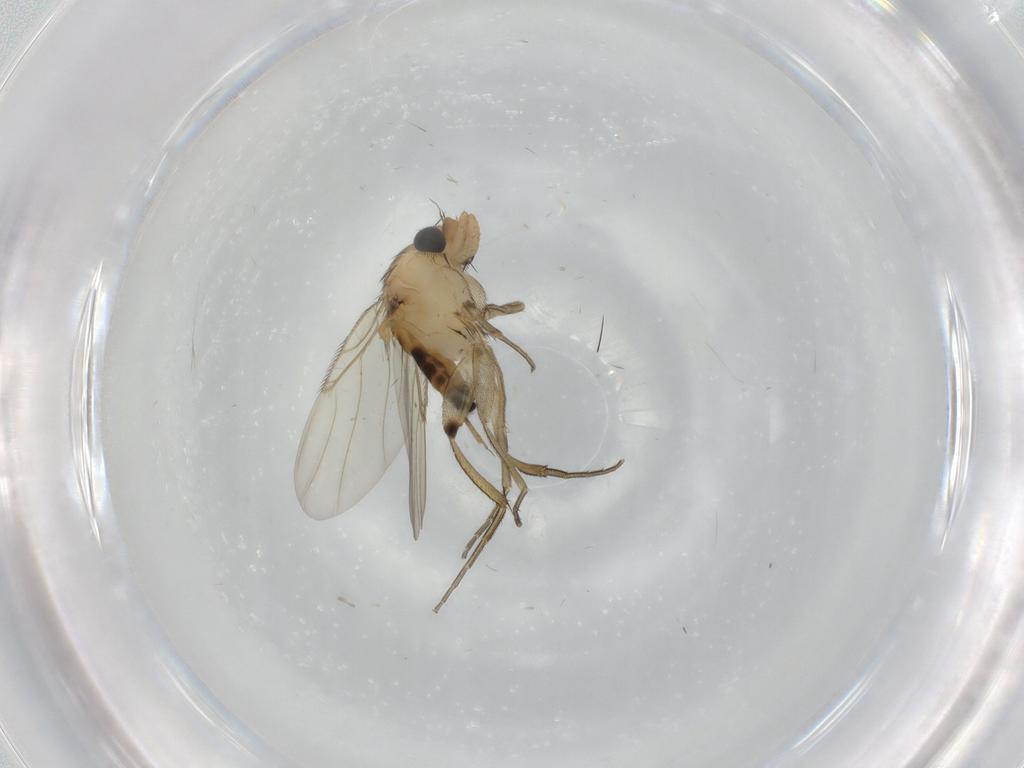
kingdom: Animalia
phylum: Arthropoda
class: Insecta
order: Diptera
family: Phoridae
